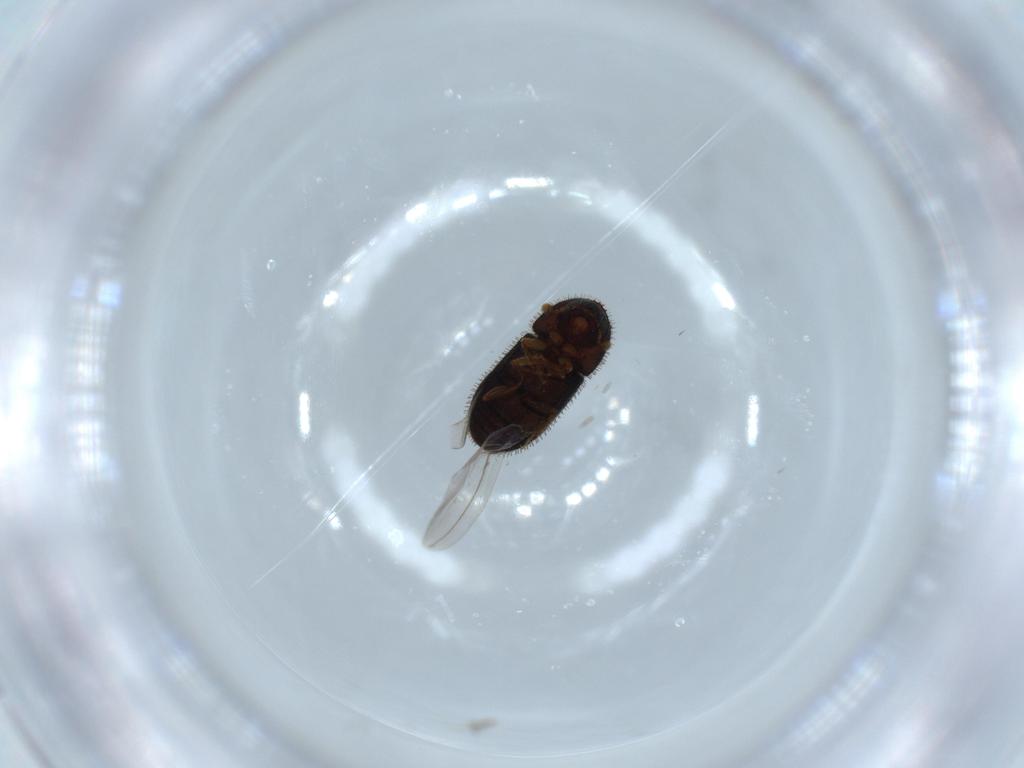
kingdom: Animalia
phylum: Arthropoda
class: Insecta
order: Coleoptera
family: Curculionidae
